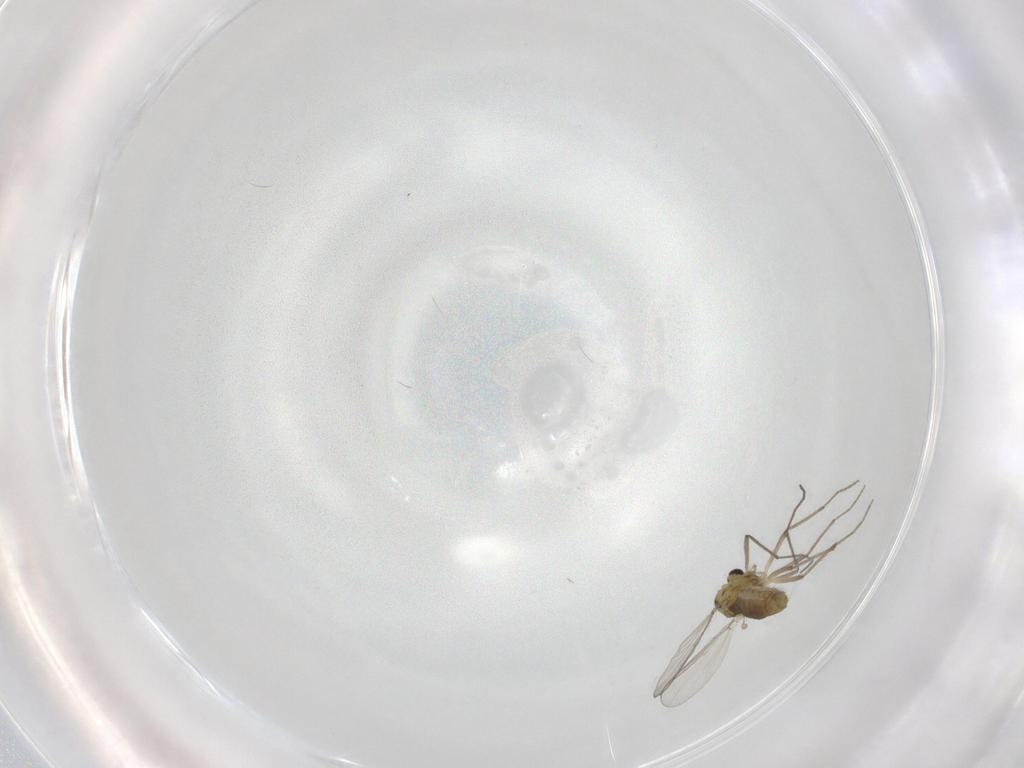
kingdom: Animalia
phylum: Arthropoda
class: Insecta
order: Diptera
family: Chironomidae
